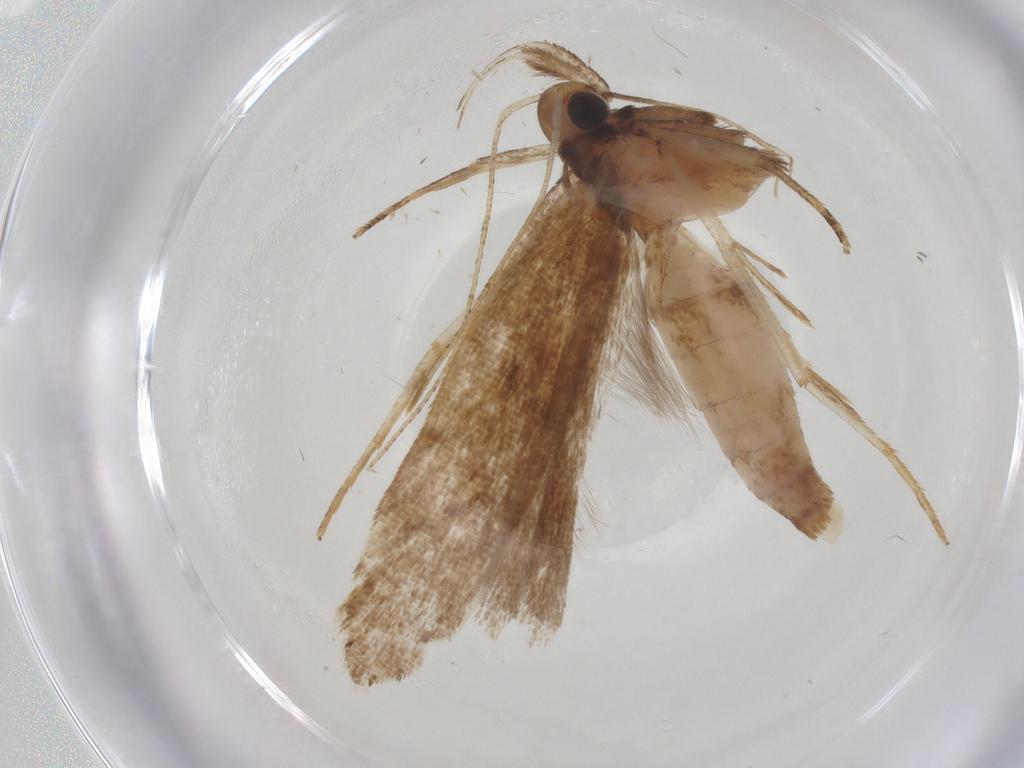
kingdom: Animalia
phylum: Arthropoda
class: Insecta
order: Lepidoptera
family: Gelechiidae
